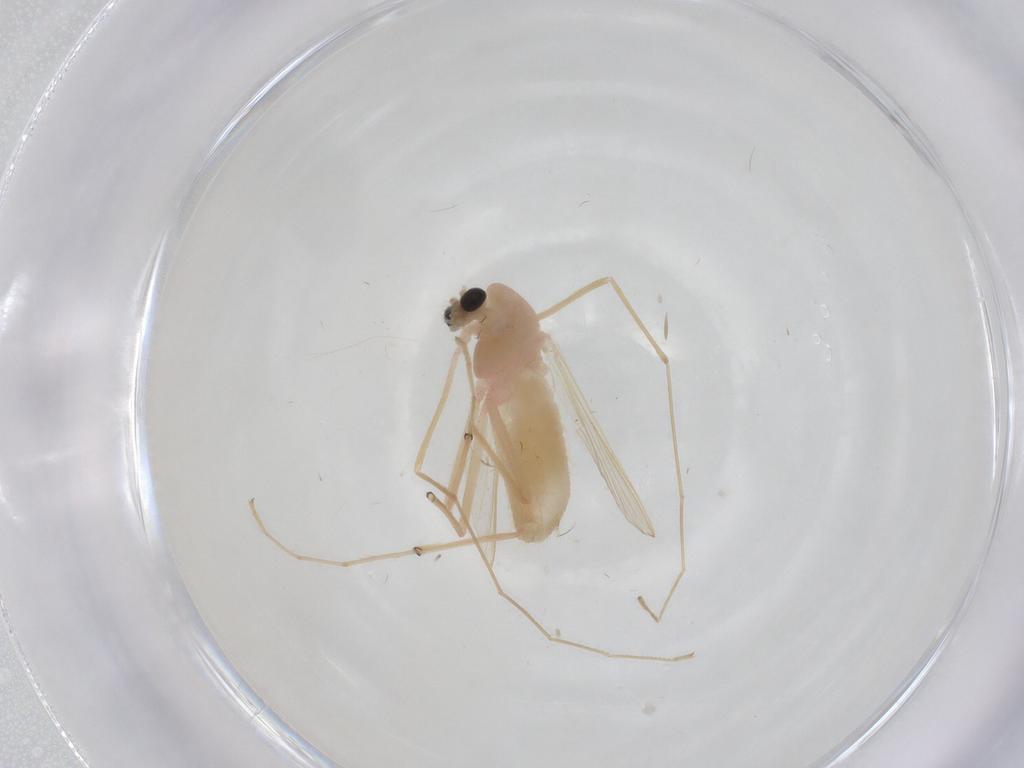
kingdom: Animalia
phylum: Arthropoda
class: Insecta
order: Diptera
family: Chironomidae
